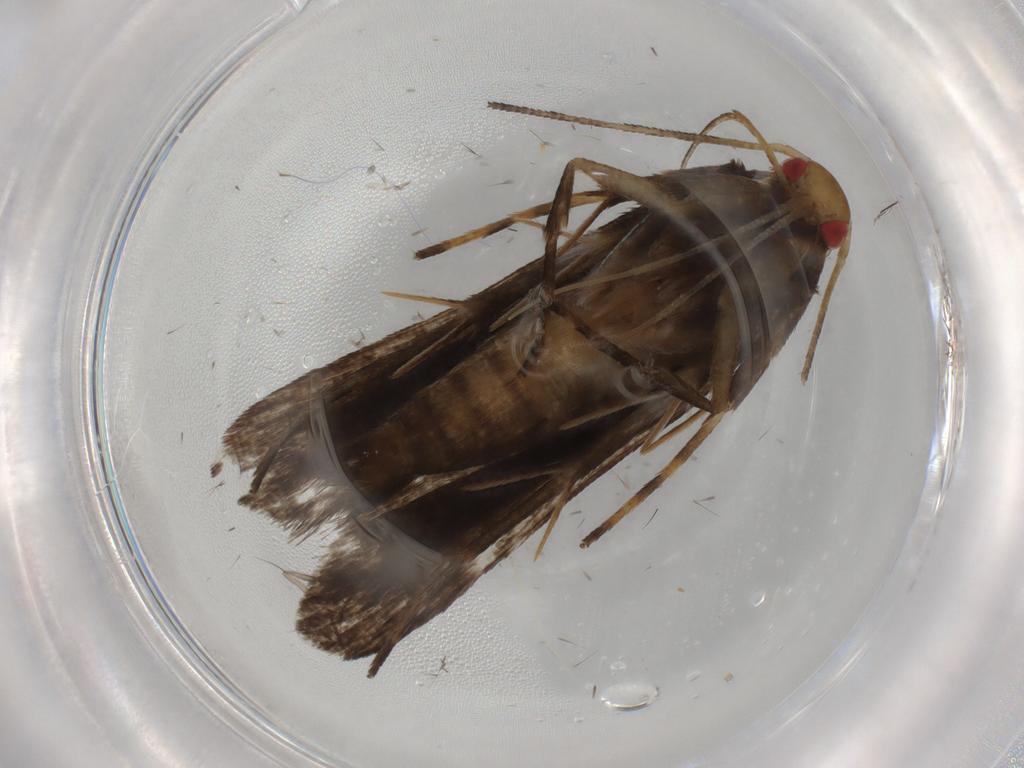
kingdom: Animalia
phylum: Arthropoda
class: Insecta
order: Lepidoptera
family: Gelechiidae
